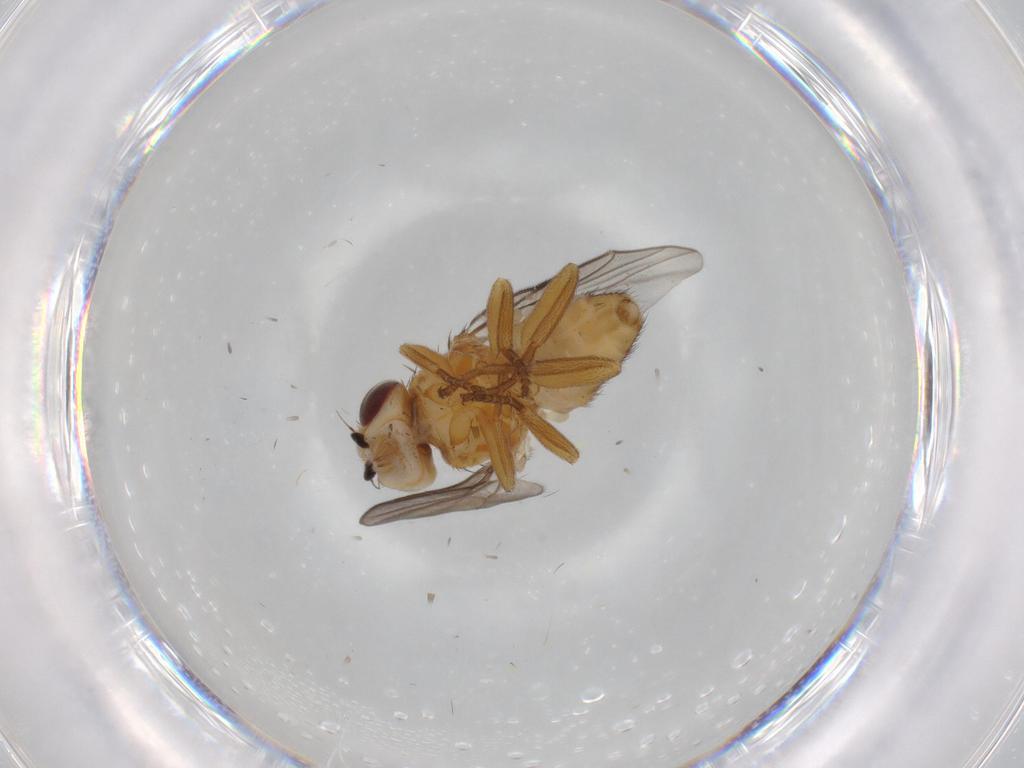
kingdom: Animalia
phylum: Arthropoda
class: Insecta
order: Diptera
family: Chloropidae
